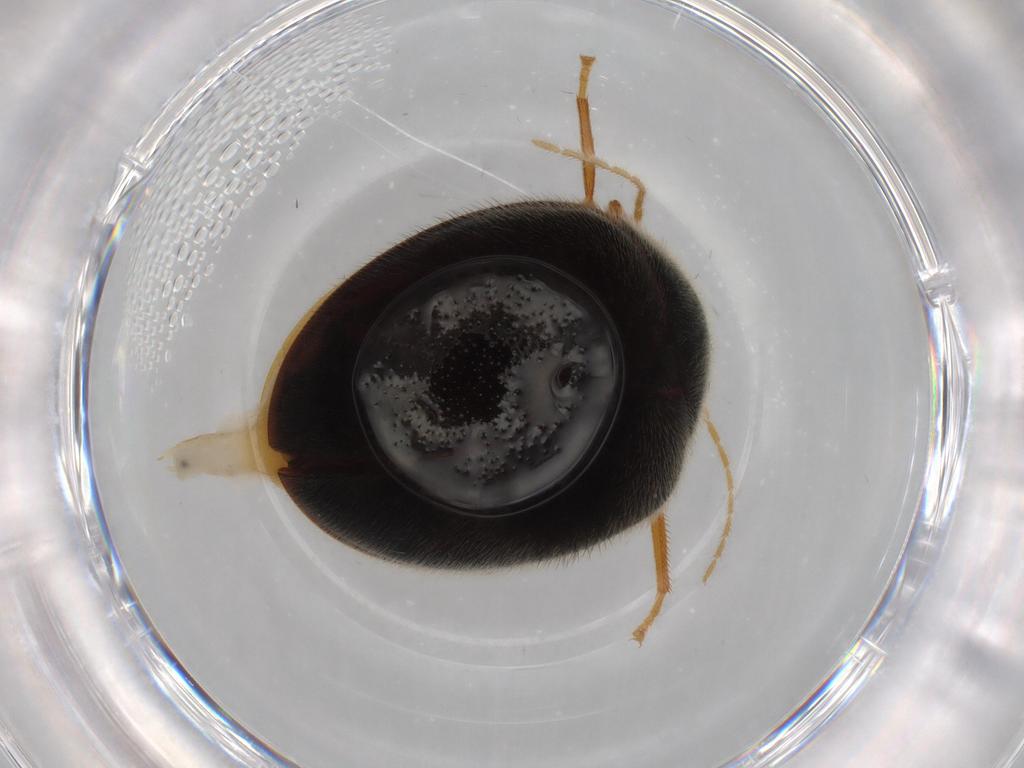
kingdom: Animalia
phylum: Arthropoda
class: Insecta
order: Coleoptera
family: Scirtidae
